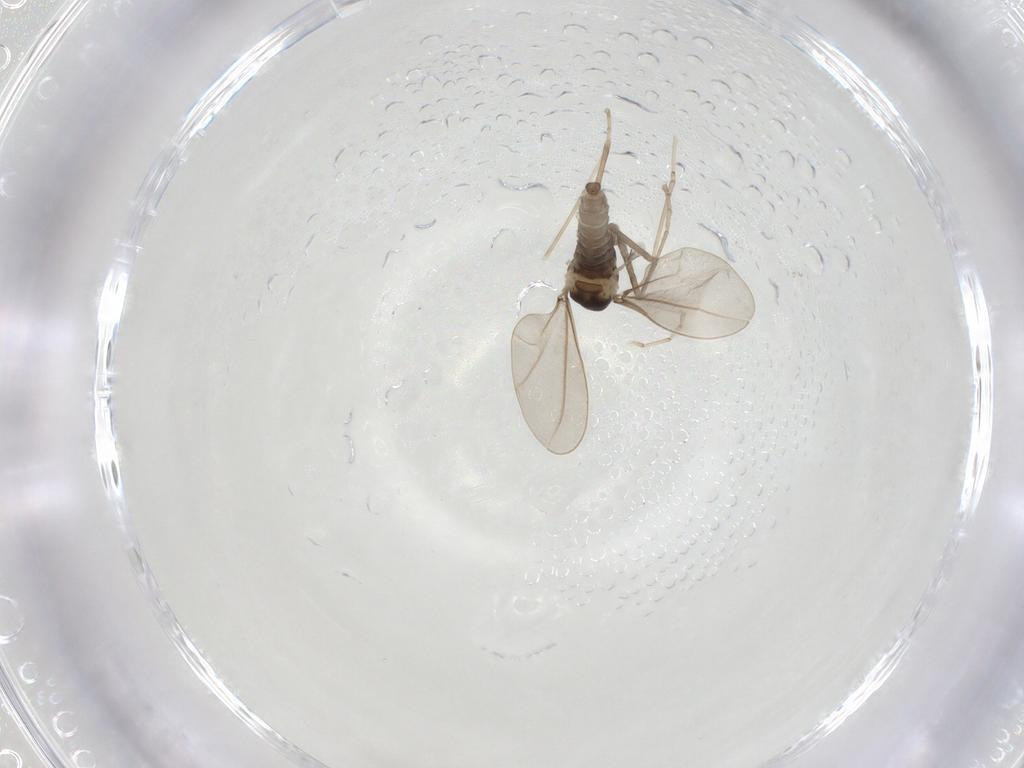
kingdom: Animalia
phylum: Arthropoda
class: Insecta
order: Diptera
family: Cecidomyiidae
